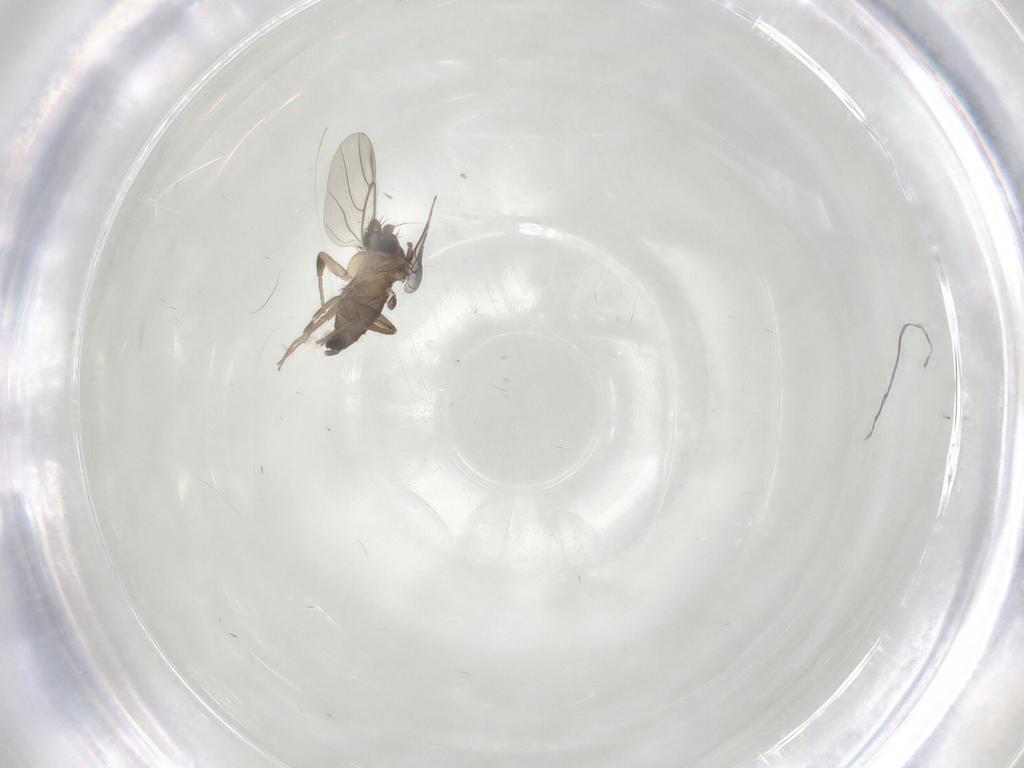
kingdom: Animalia
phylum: Arthropoda
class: Insecta
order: Diptera
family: Phoridae
